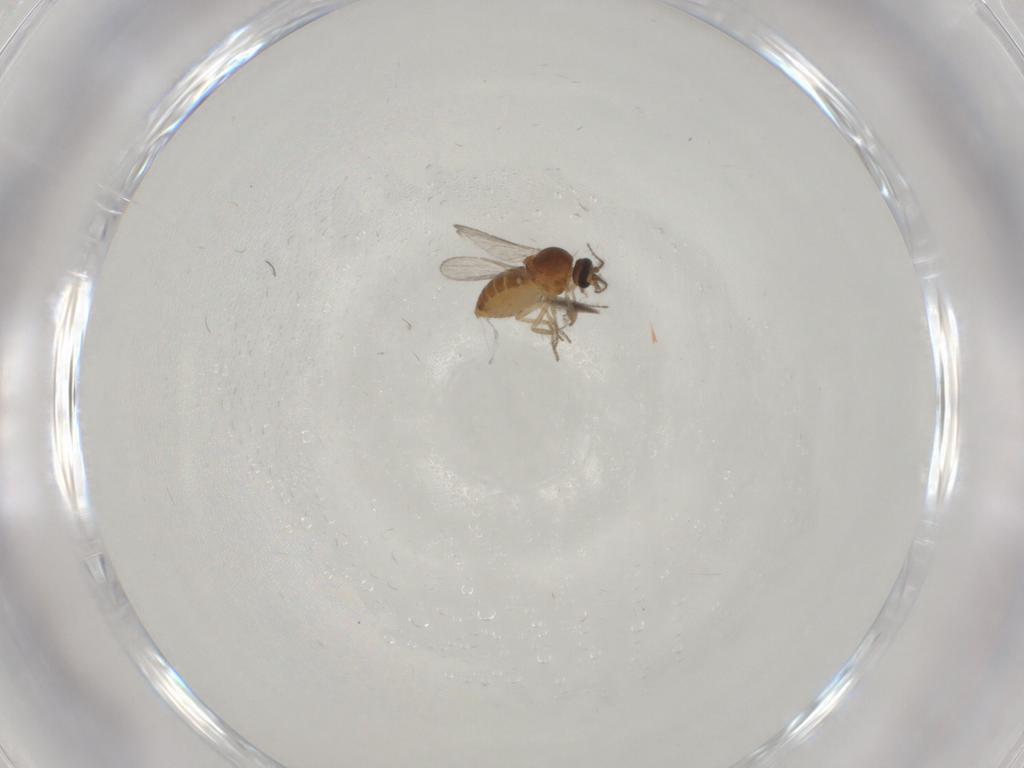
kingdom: Animalia
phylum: Arthropoda
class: Insecta
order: Diptera
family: Ceratopogonidae
